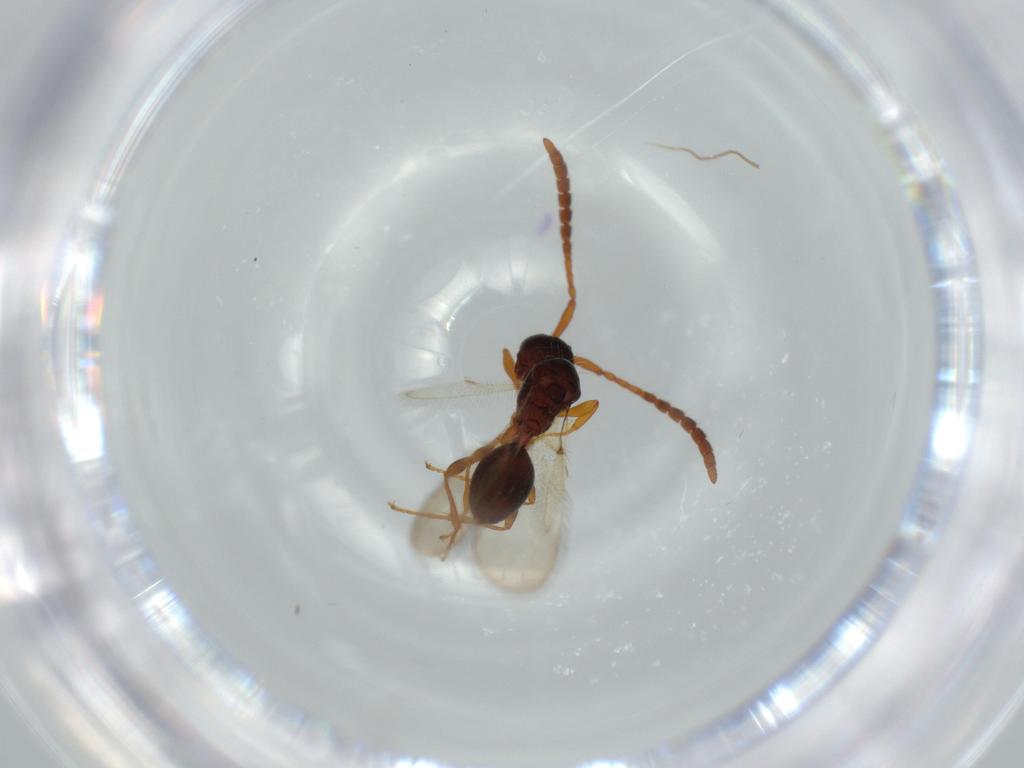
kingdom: Animalia
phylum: Arthropoda
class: Insecta
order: Hymenoptera
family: Diapriidae
